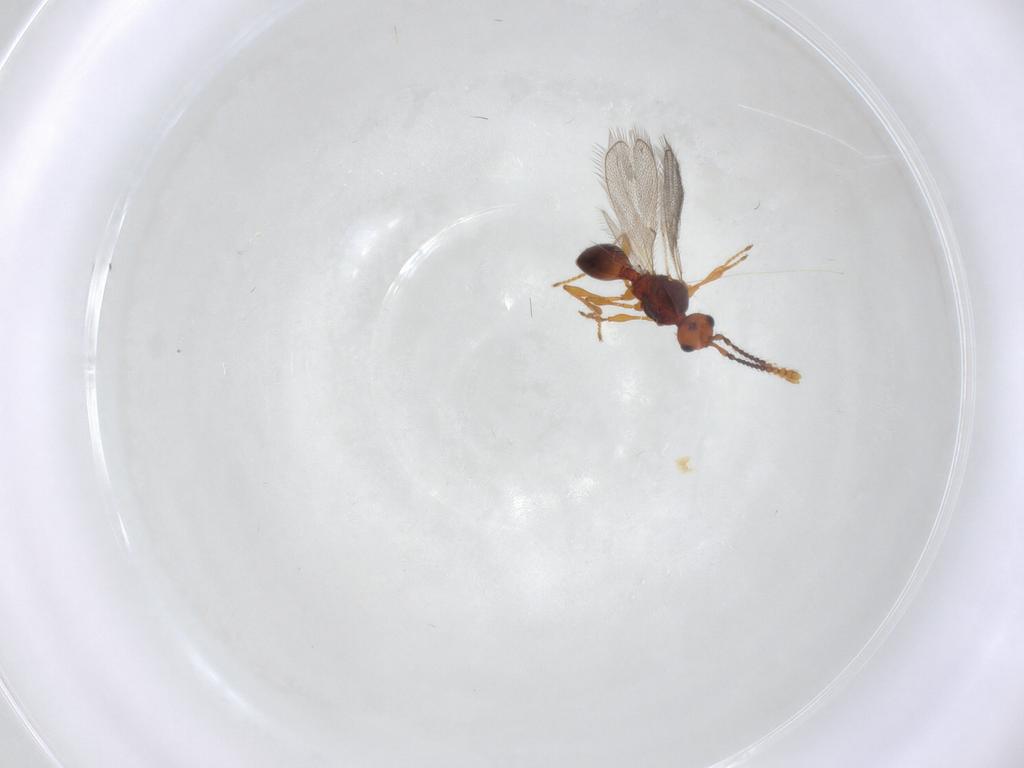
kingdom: Animalia
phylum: Arthropoda
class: Insecta
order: Hymenoptera
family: Diapriidae
